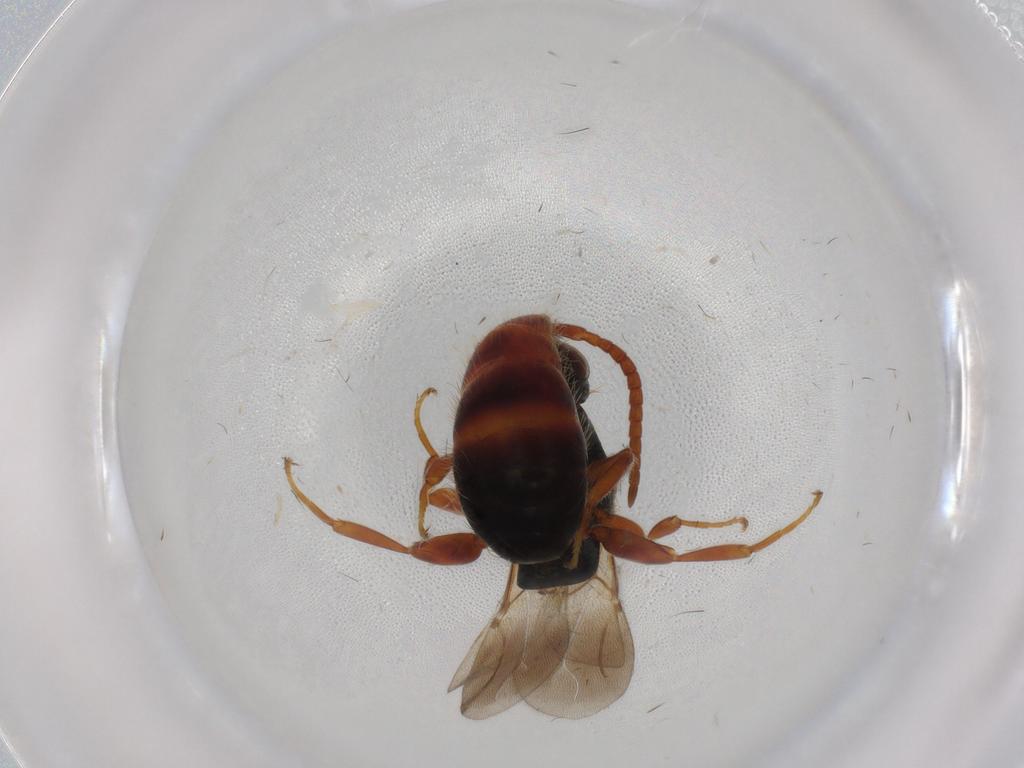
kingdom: Animalia
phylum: Arthropoda
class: Insecta
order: Hymenoptera
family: Bethylidae
